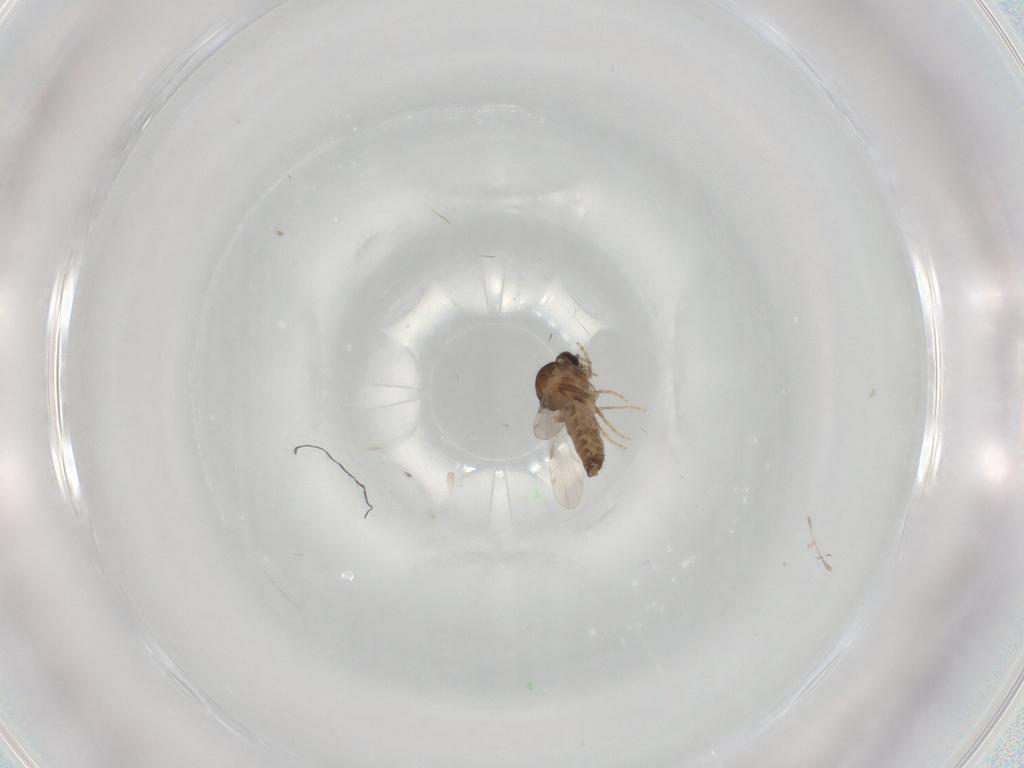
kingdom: Animalia
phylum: Arthropoda
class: Insecta
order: Diptera
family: Ceratopogonidae
